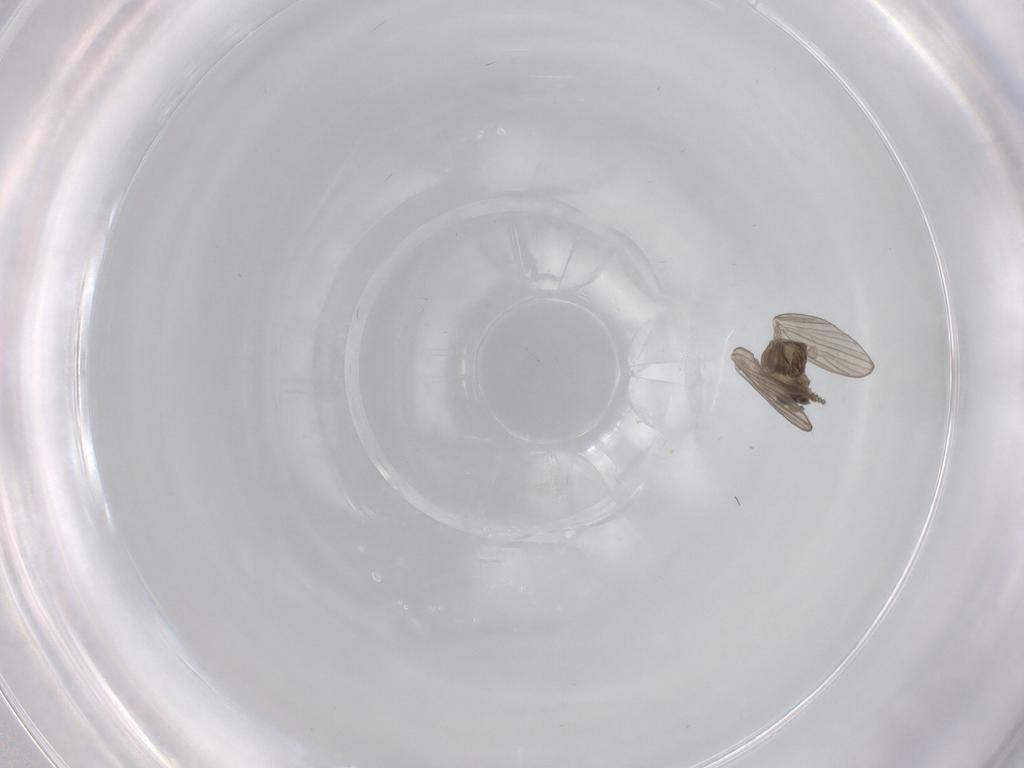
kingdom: Animalia
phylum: Arthropoda
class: Insecta
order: Diptera
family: Psychodidae
